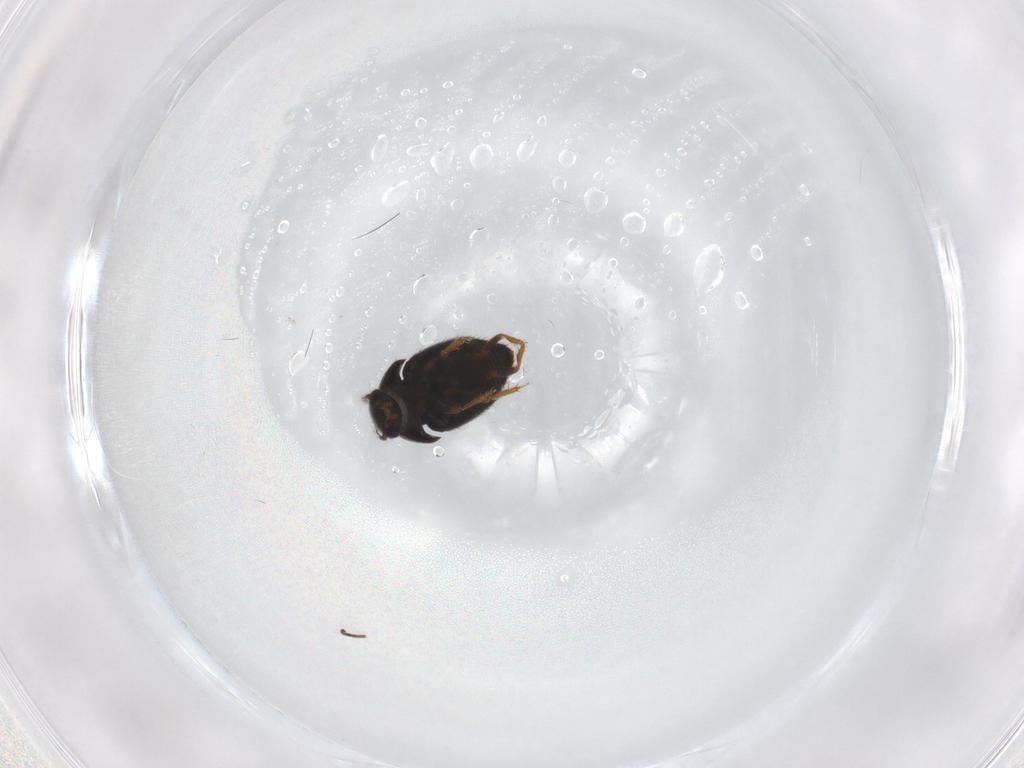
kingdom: Animalia
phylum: Arthropoda
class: Insecta
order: Coleoptera
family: Ptiliidae
